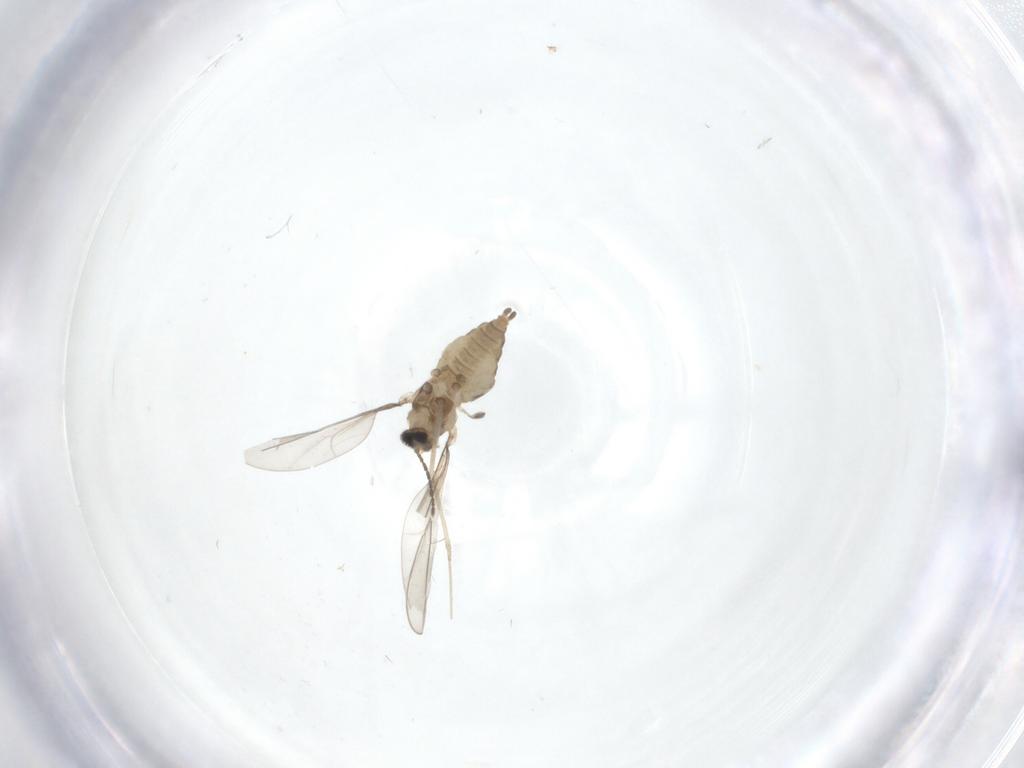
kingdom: Animalia
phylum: Arthropoda
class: Insecta
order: Diptera
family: Cecidomyiidae
